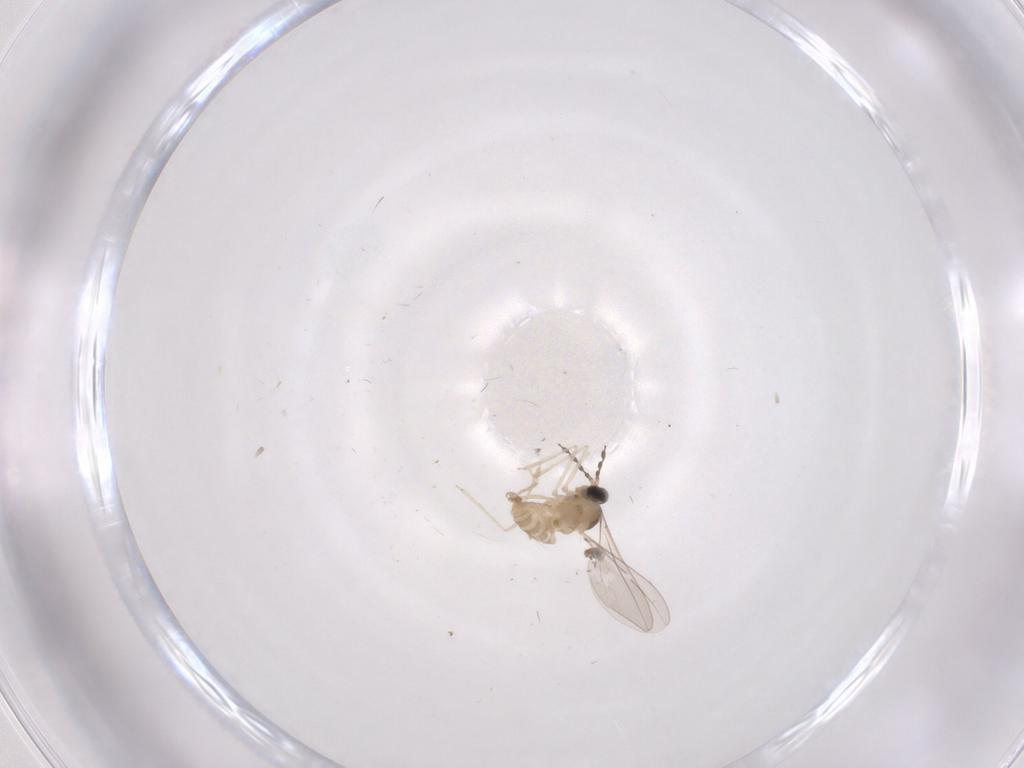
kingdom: Animalia
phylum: Arthropoda
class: Insecta
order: Diptera
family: Cecidomyiidae
